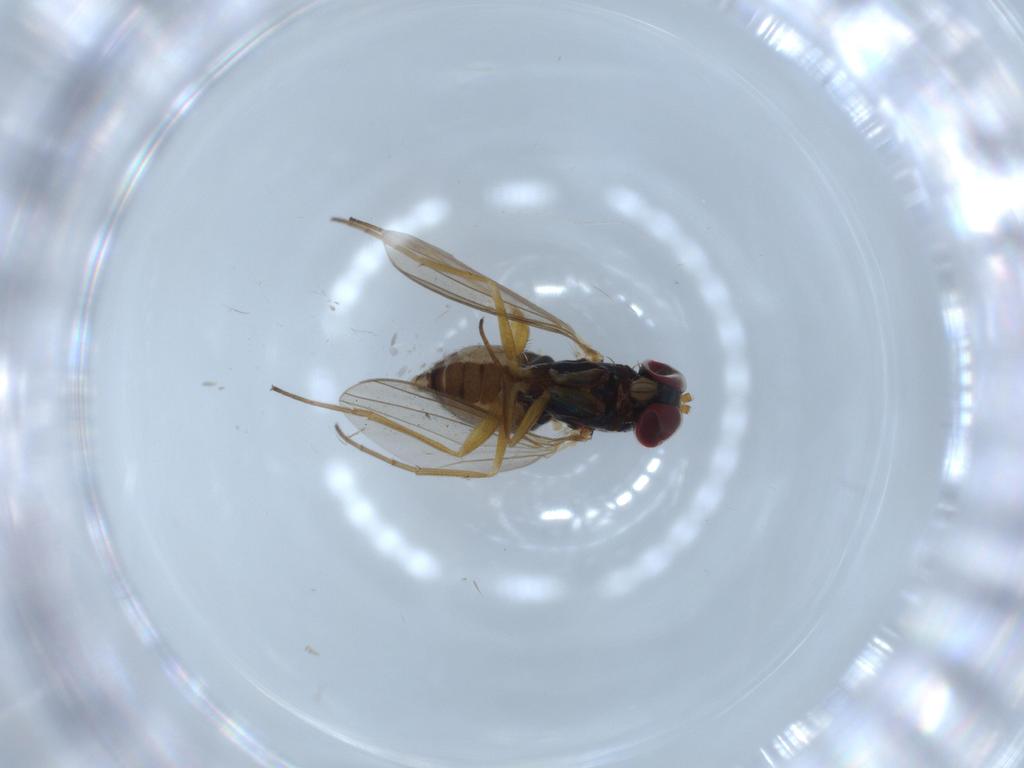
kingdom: Animalia
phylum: Arthropoda
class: Insecta
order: Diptera
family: Dolichopodidae
